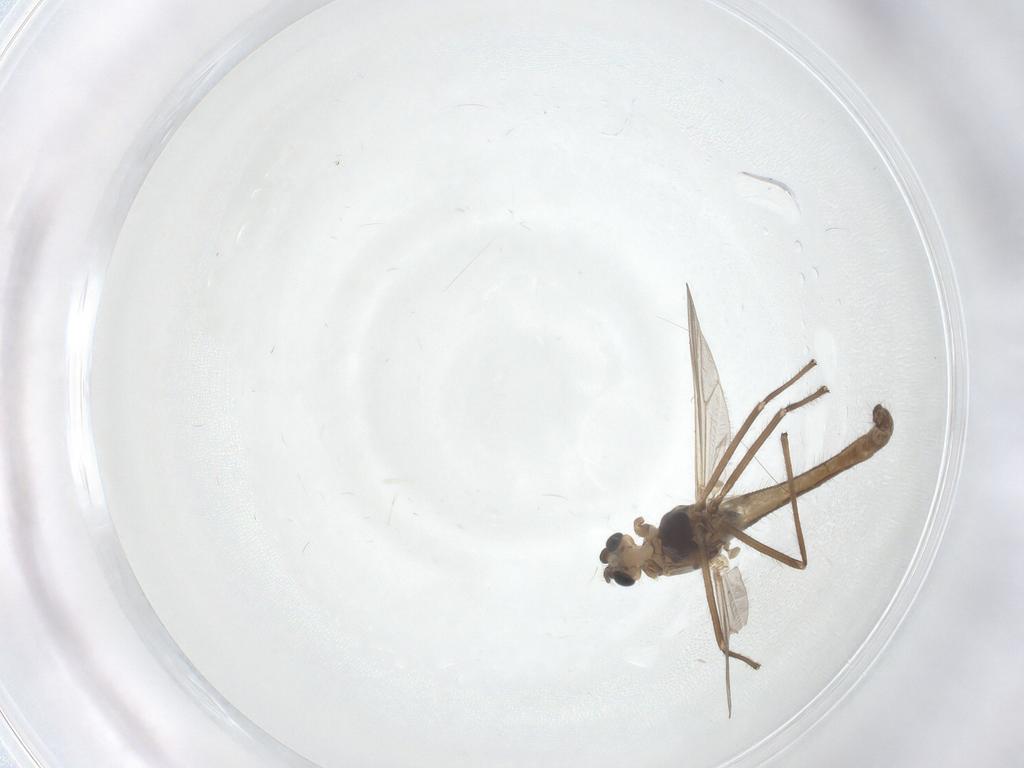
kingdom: Animalia
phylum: Arthropoda
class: Insecta
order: Diptera
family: Chironomidae
